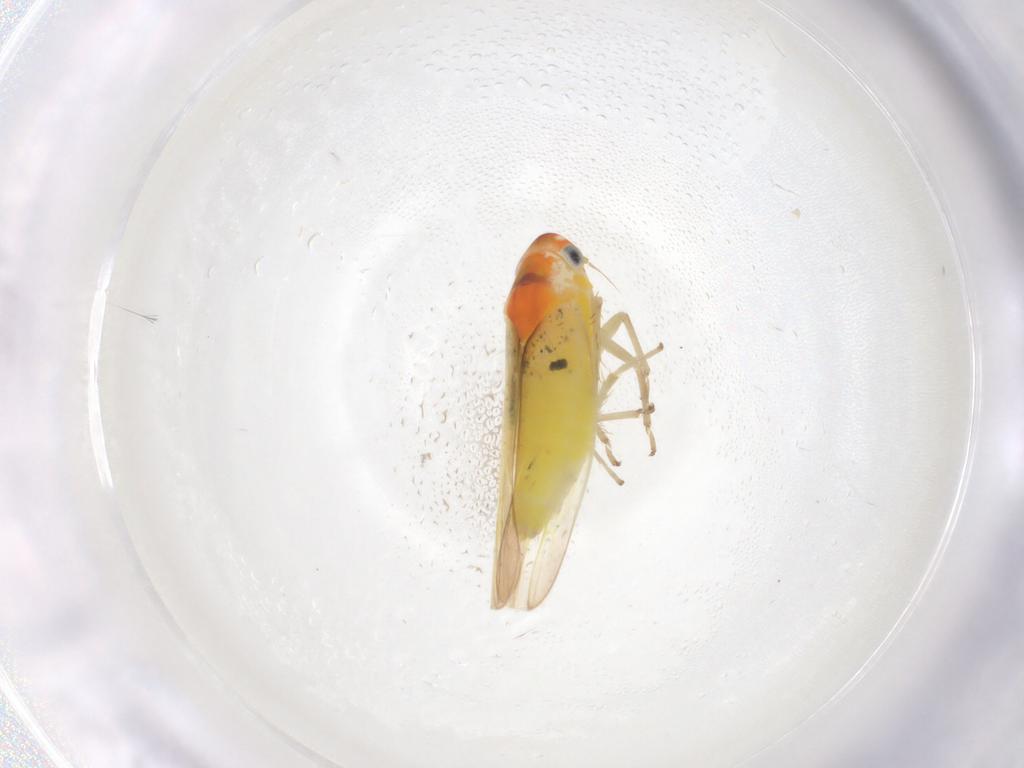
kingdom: Animalia
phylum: Arthropoda
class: Insecta
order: Hemiptera
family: Cicadellidae
